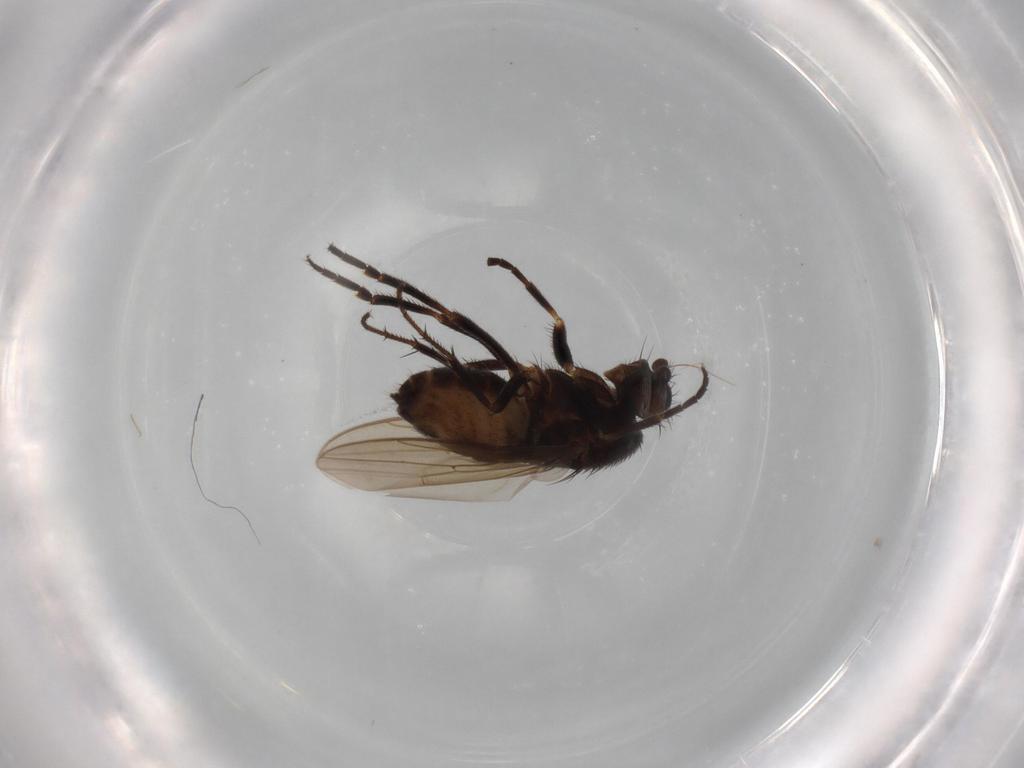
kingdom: Animalia
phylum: Arthropoda
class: Insecta
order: Diptera
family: Sphaeroceridae
